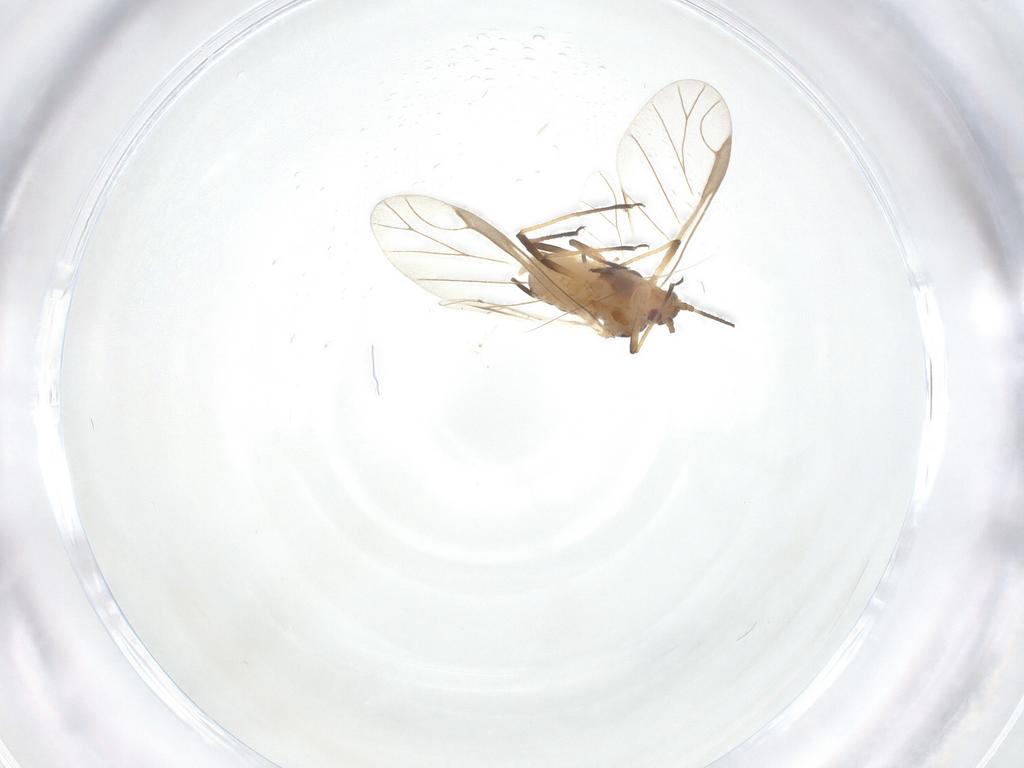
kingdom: Animalia
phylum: Arthropoda
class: Insecta
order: Hemiptera
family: Aphididae
